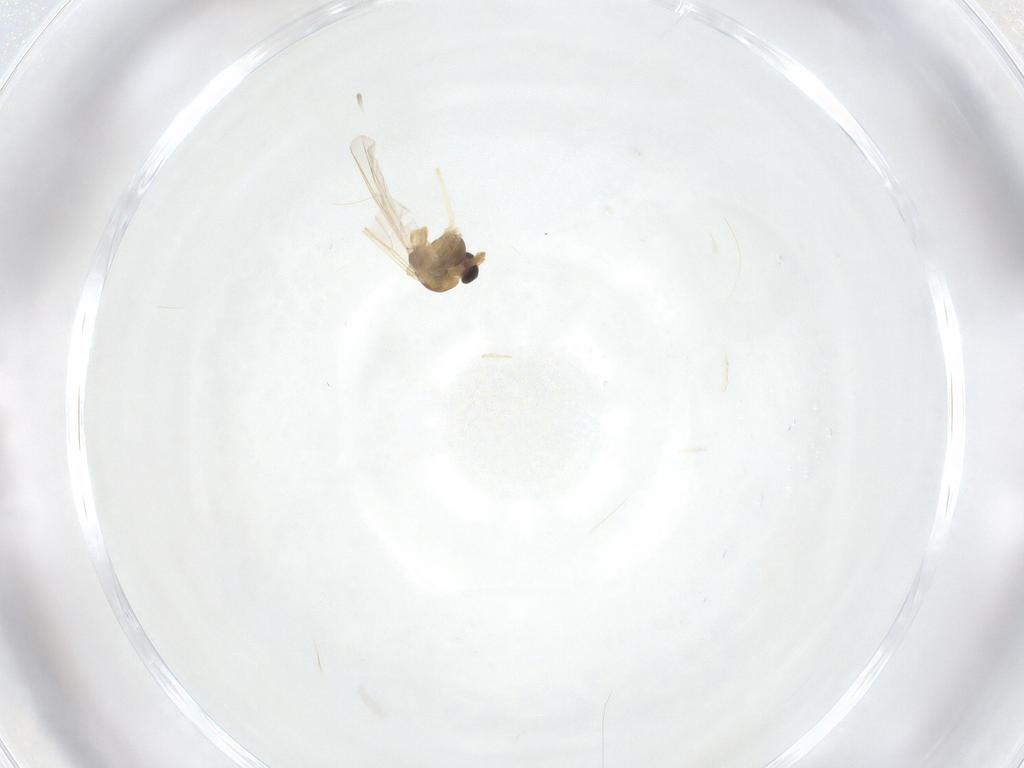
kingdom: Animalia
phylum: Arthropoda
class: Insecta
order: Diptera
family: Chironomidae
